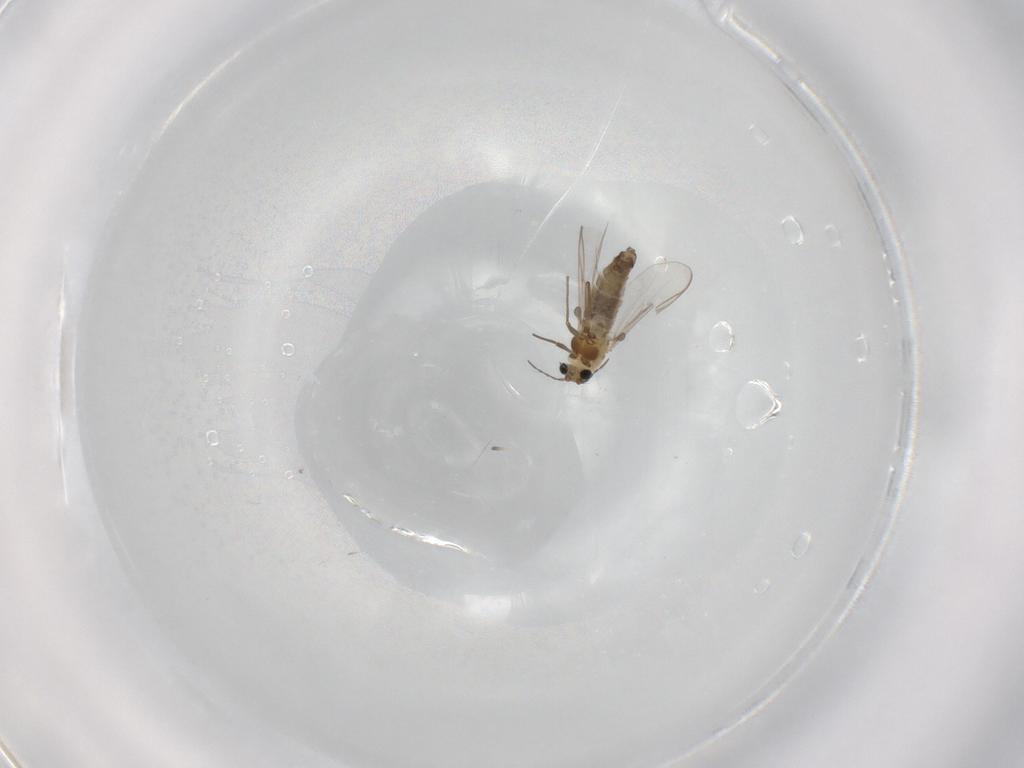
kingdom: Animalia
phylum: Arthropoda
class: Insecta
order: Diptera
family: Chironomidae
